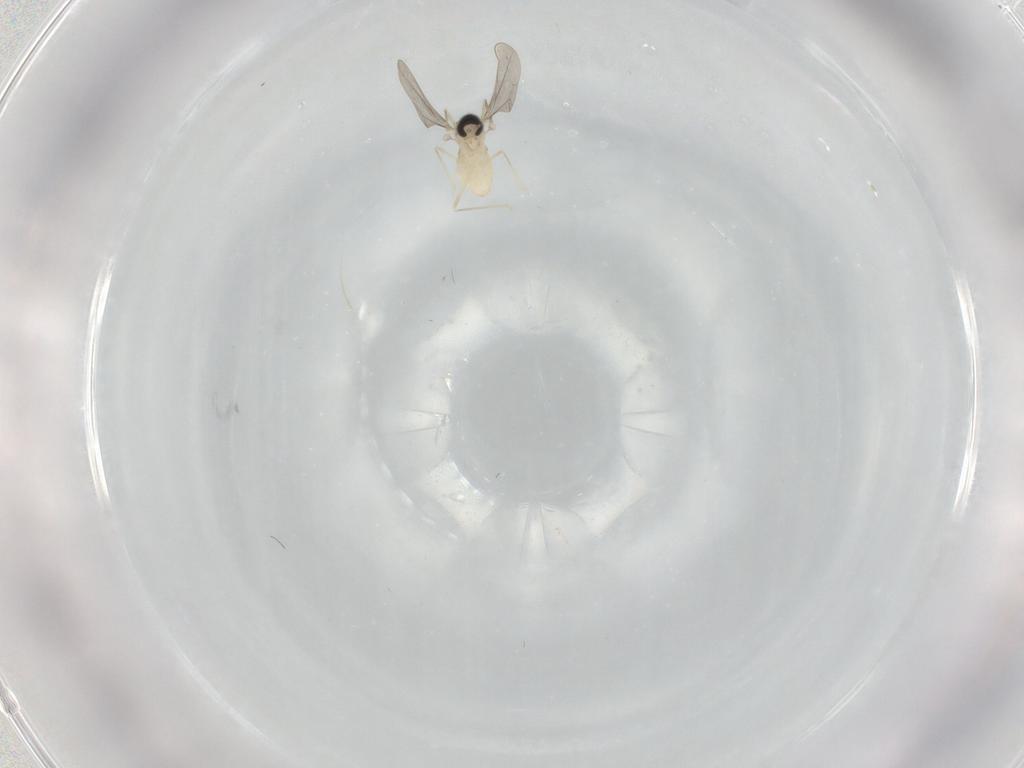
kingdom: Animalia
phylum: Arthropoda
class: Insecta
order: Diptera
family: Cecidomyiidae
